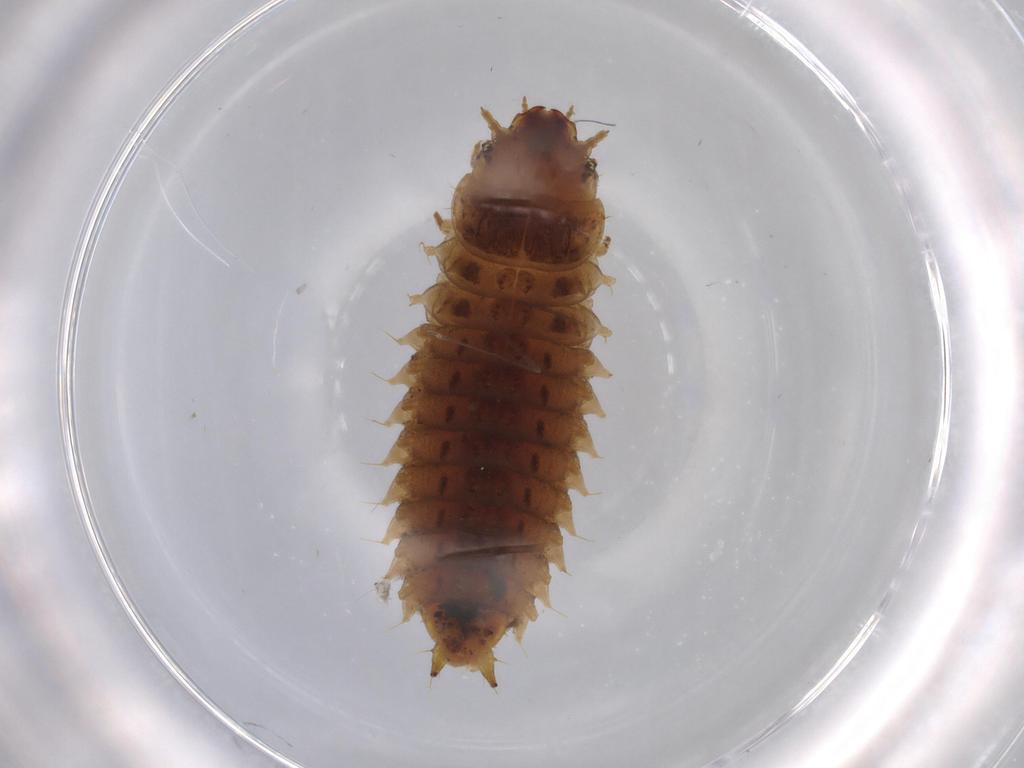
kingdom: Animalia
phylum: Arthropoda
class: Insecta
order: Coleoptera
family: Nitidulidae
